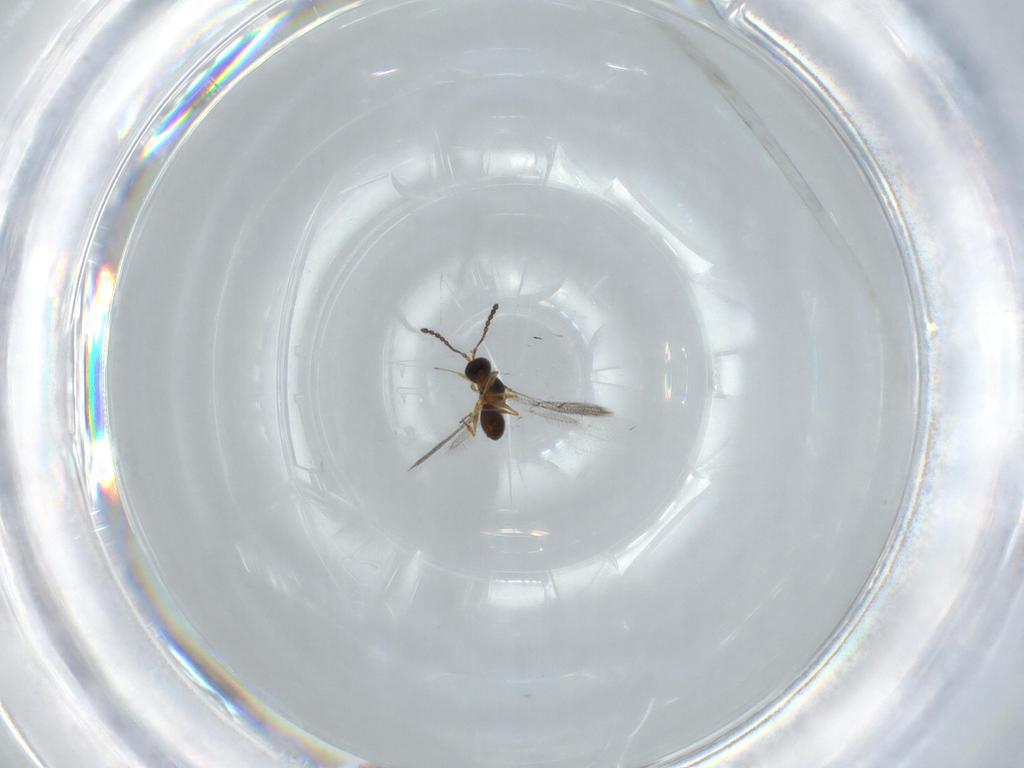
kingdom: Animalia
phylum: Arthropoda
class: Insecta
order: Hymenoptera
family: Figitidae
